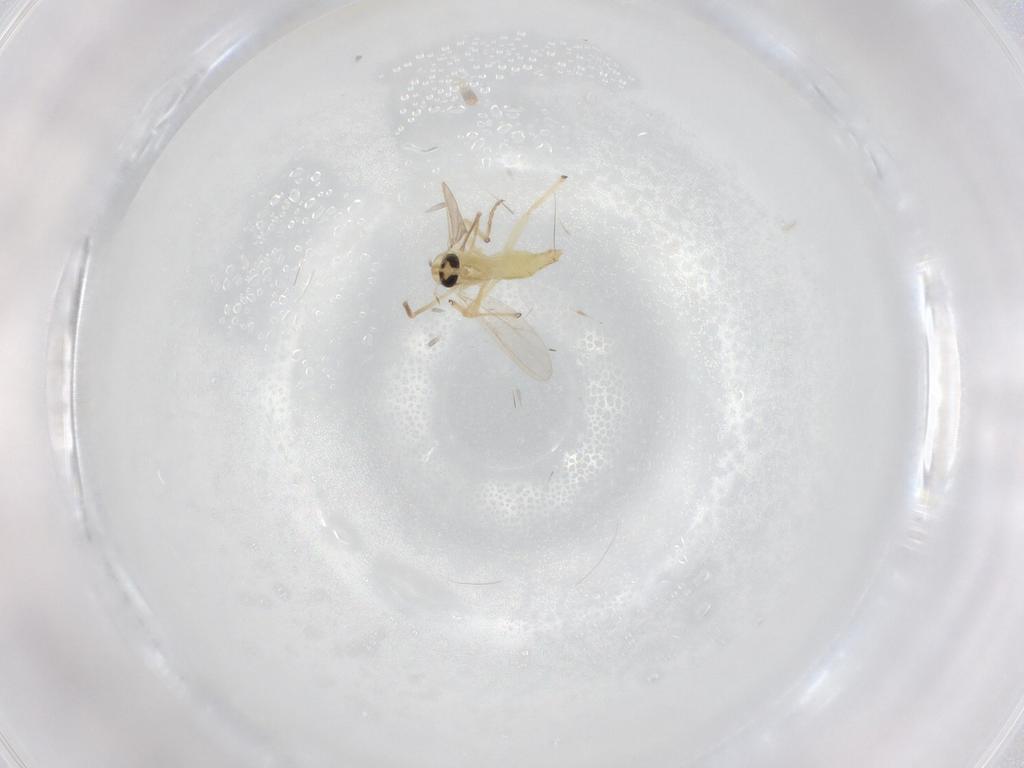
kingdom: Animalia
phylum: Arthropoda
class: Insecta
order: Diptera
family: Chironomidae
